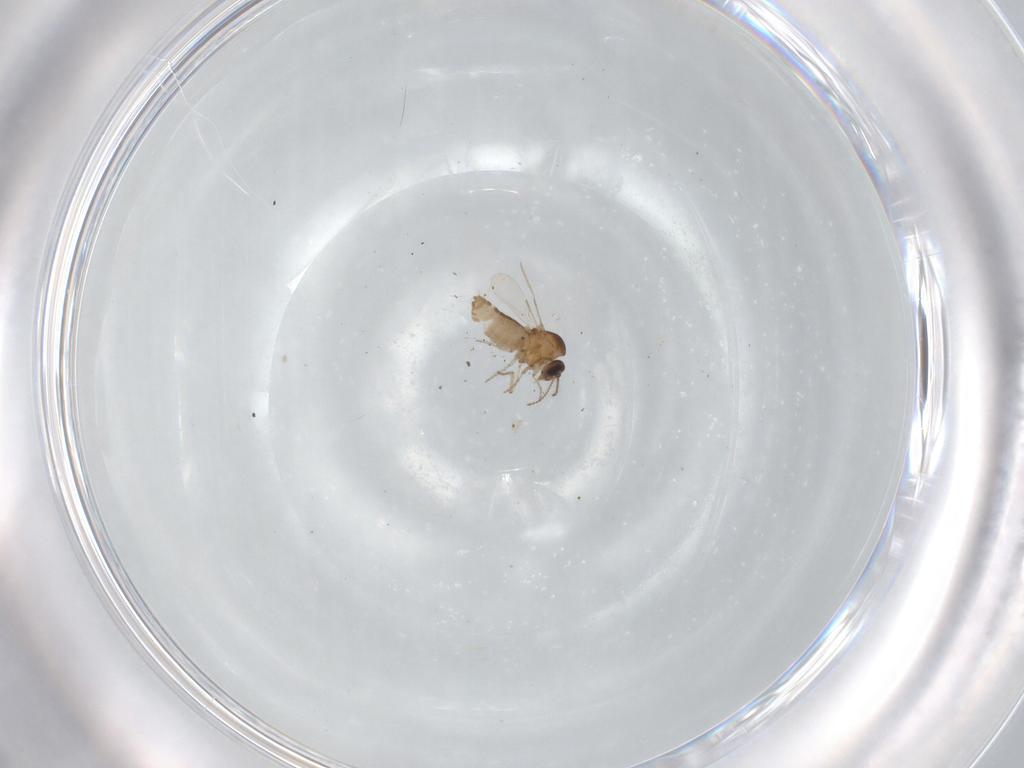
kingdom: Animalia
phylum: Arthropoda
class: Insecta
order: Diptera
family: Ceratopogonidae
